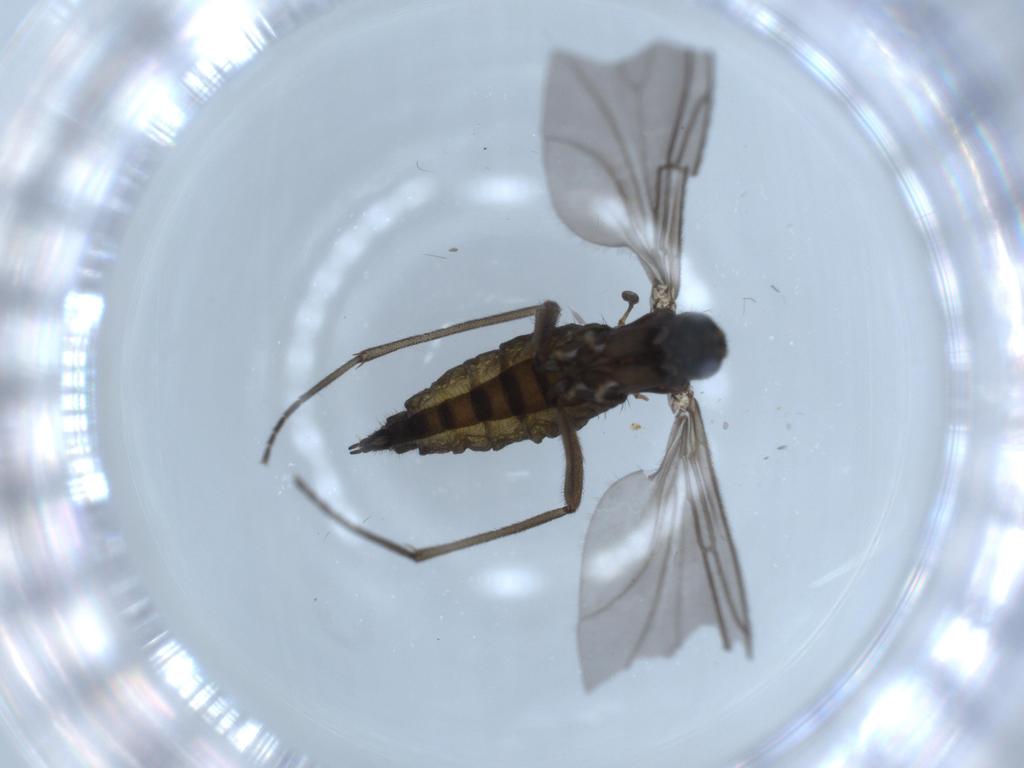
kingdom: Animalia
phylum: Arthropoda
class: Insecta
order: Diptera
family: Sciaridae
